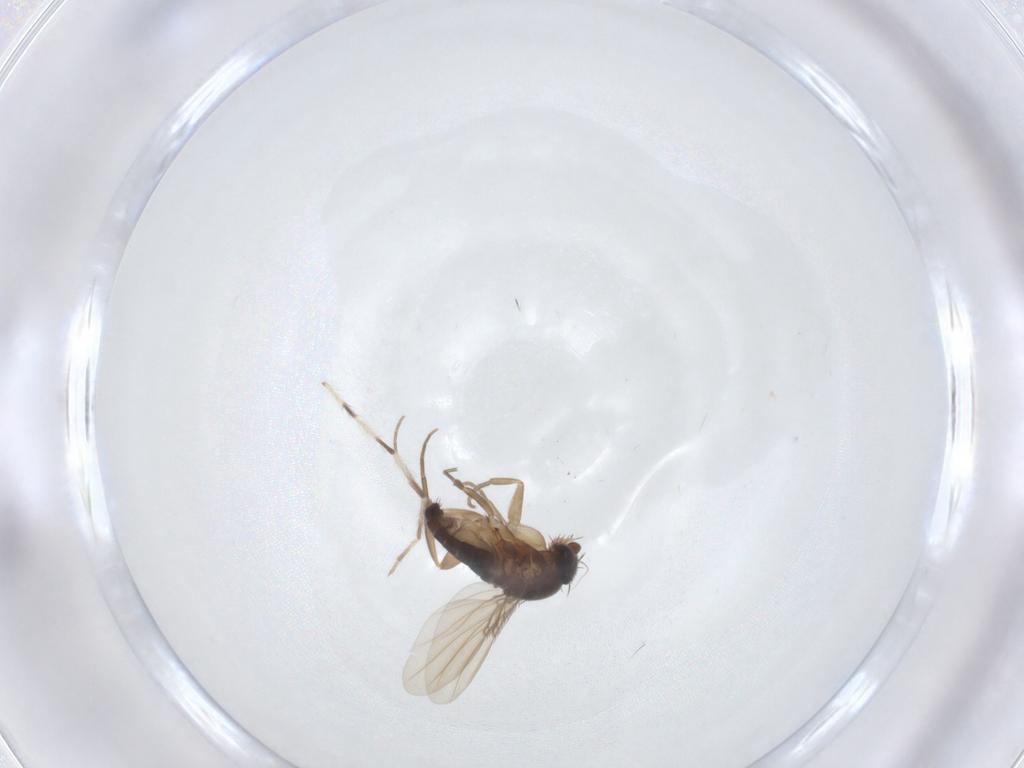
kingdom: Animalia
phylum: Arthropoda
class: Insecta
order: Diptera
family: Phoridae
